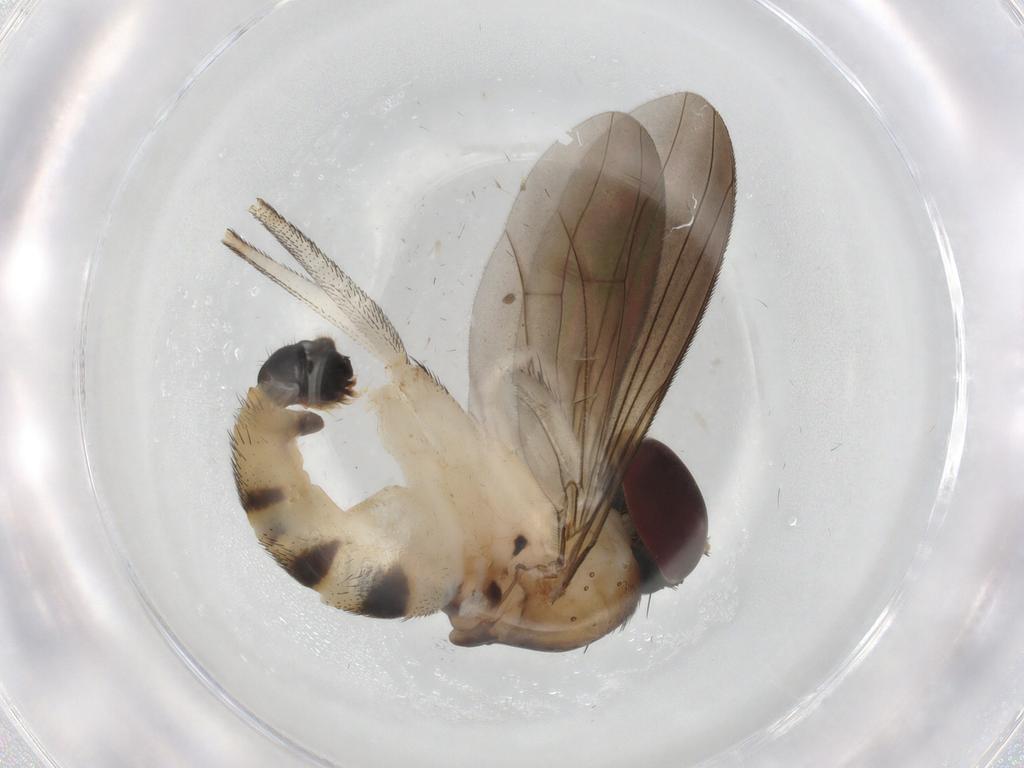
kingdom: Animalia
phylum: Arthropoda
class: Insecta
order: Diptera
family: Dolichopodidae
